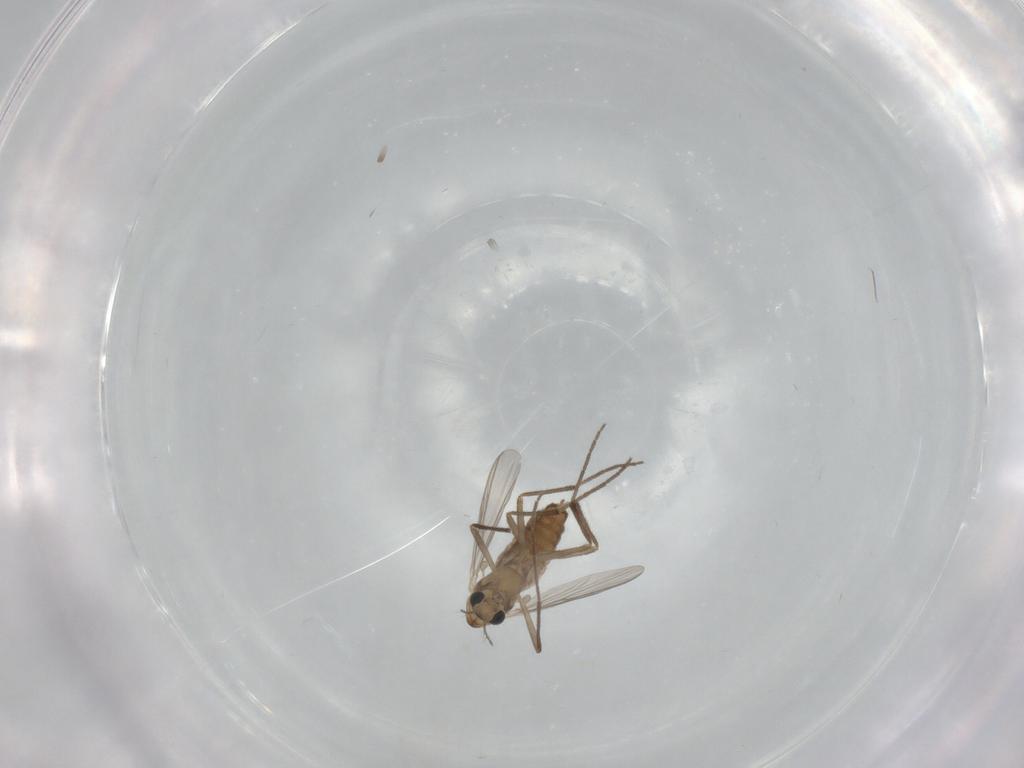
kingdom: Animalia
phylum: Arthropoda
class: Insecta
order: Diptera
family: Chironomidae
